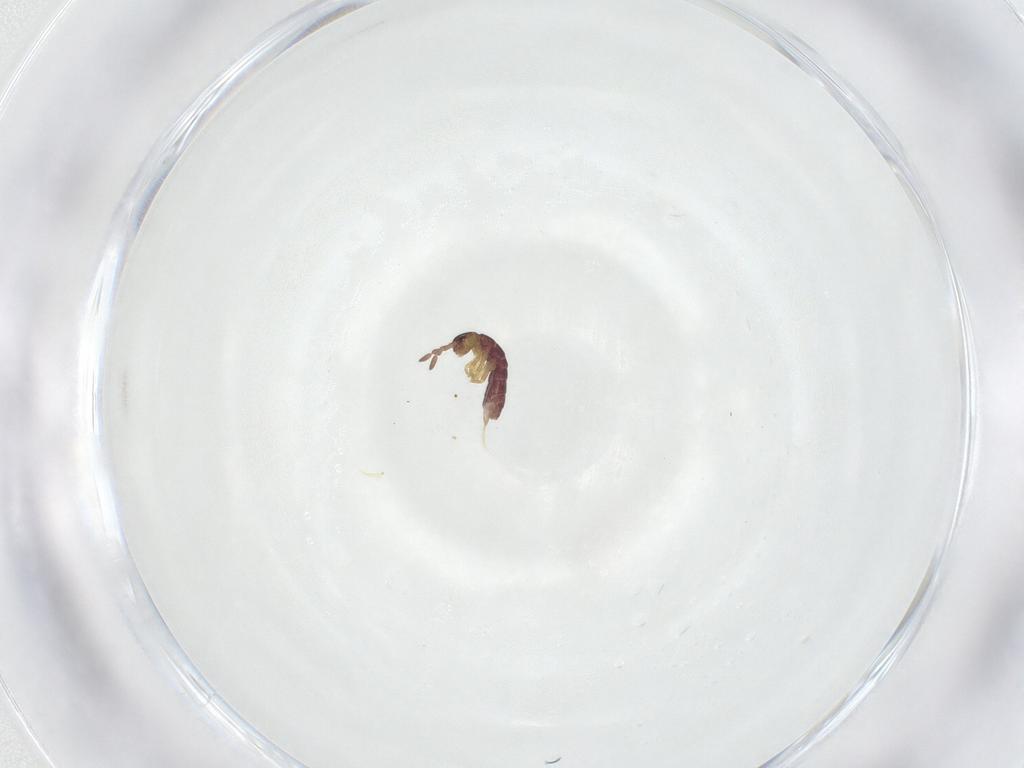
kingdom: Animalia
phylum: Arthropoda
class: Collembola
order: Entomobryomorpha
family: Isotomidae
